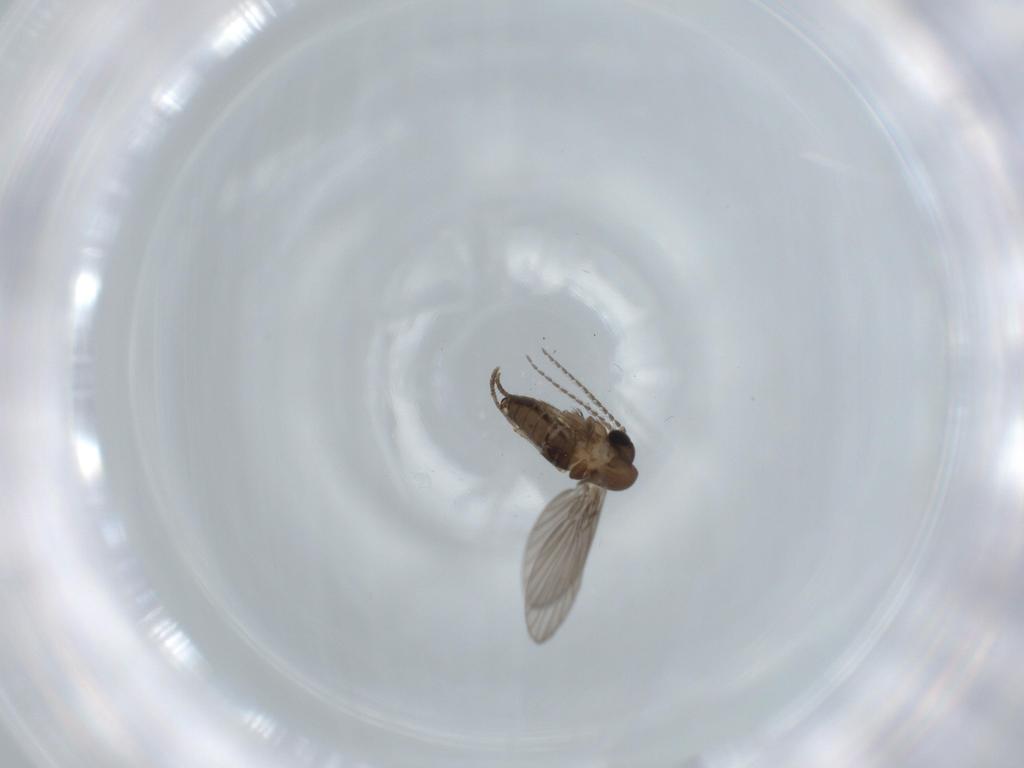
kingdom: Animalia
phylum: Arthropoda
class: Insecta
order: Diptera
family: Psychodidae
